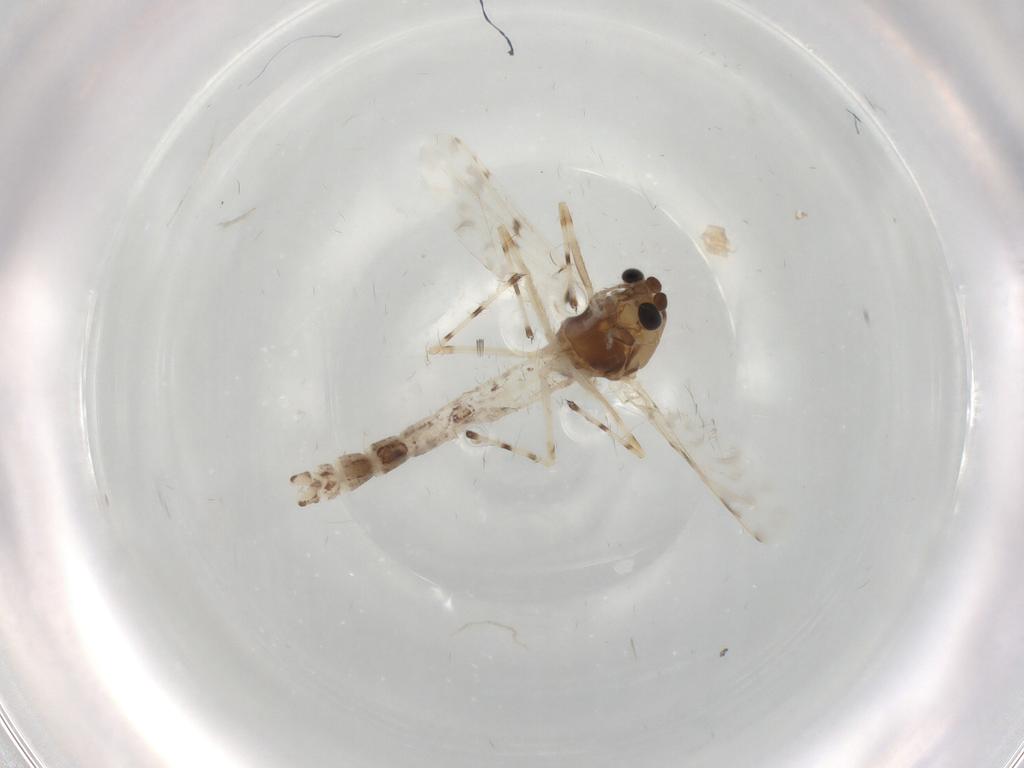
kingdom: Animalia
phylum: Arthropoda
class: Insecta
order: Diptera
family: Chironomidae
